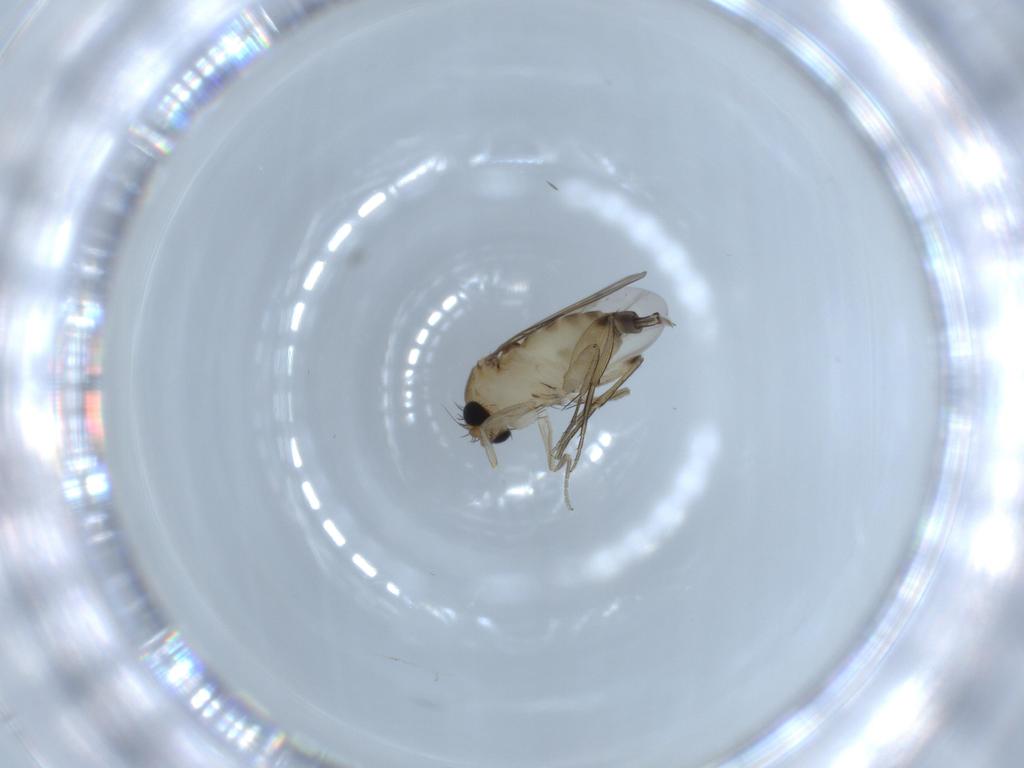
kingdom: Animalia
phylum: Arthropoda
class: Insecta
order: Diptera
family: Phoridae
